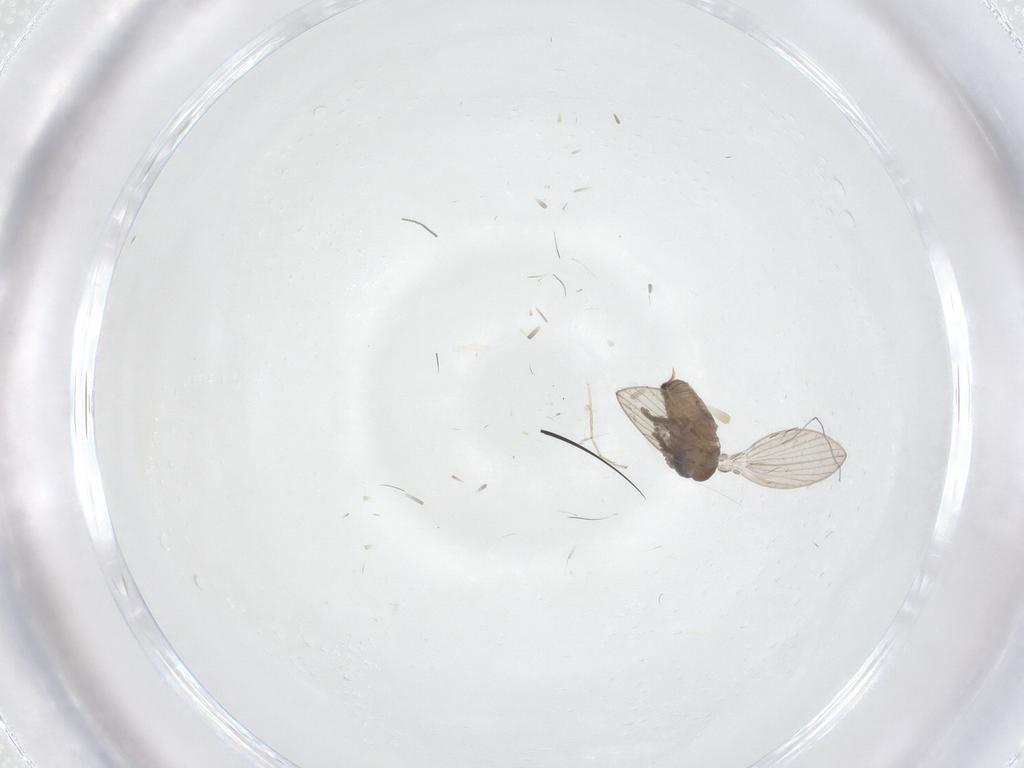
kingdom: Animalia
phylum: Arthropoda
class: Insecta
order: Diptera
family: Psychodidae
